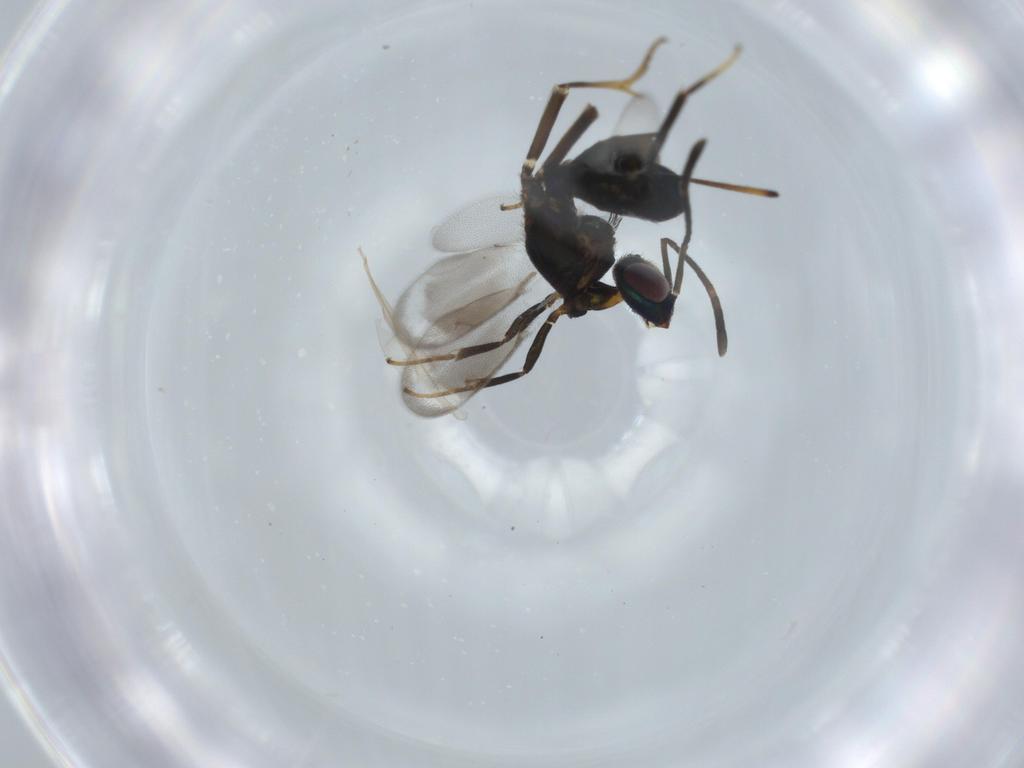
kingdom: Animalia
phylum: Arthropoda
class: Insecta
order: Hymenoptera
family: Eupelmidae
